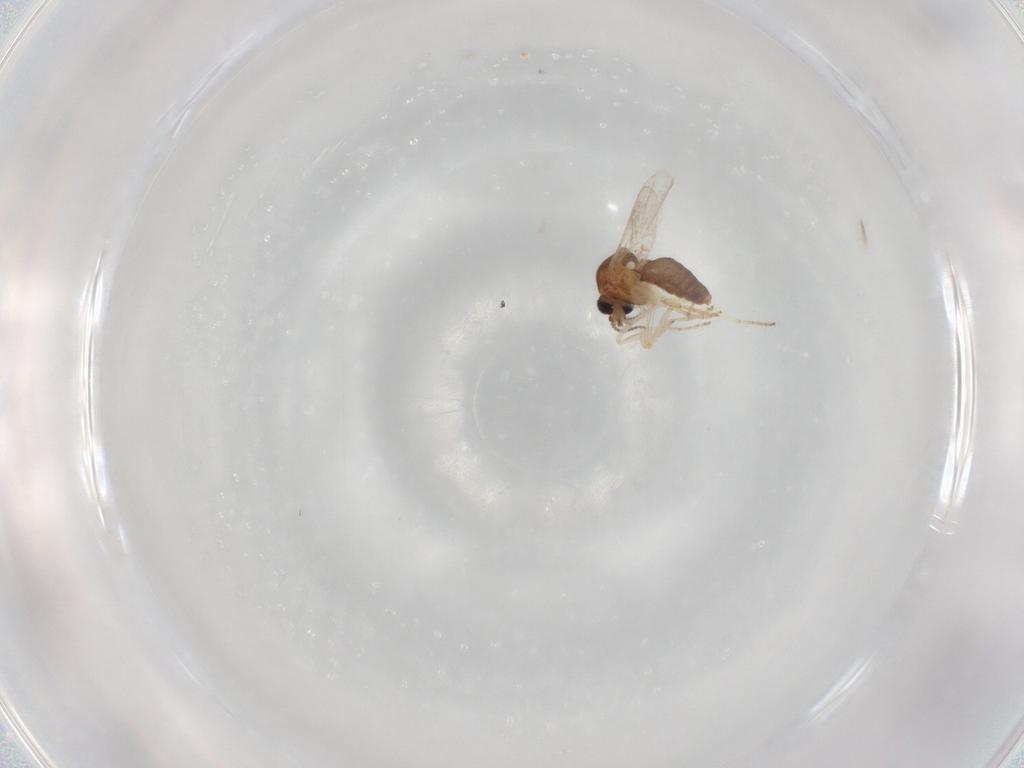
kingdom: Animalia
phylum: Arthropoda
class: Insecta
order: Diptera
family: Ceratopogonidae
